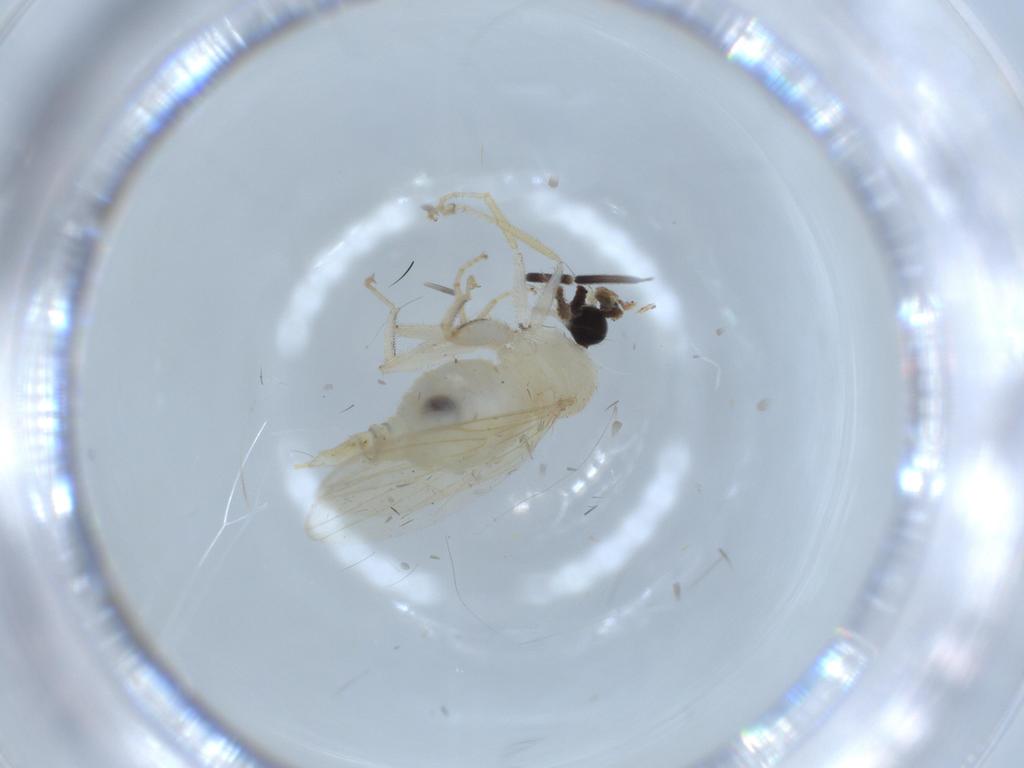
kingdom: Animalia
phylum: Arthropoda
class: Insecta
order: Diptera
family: Hybotidae
